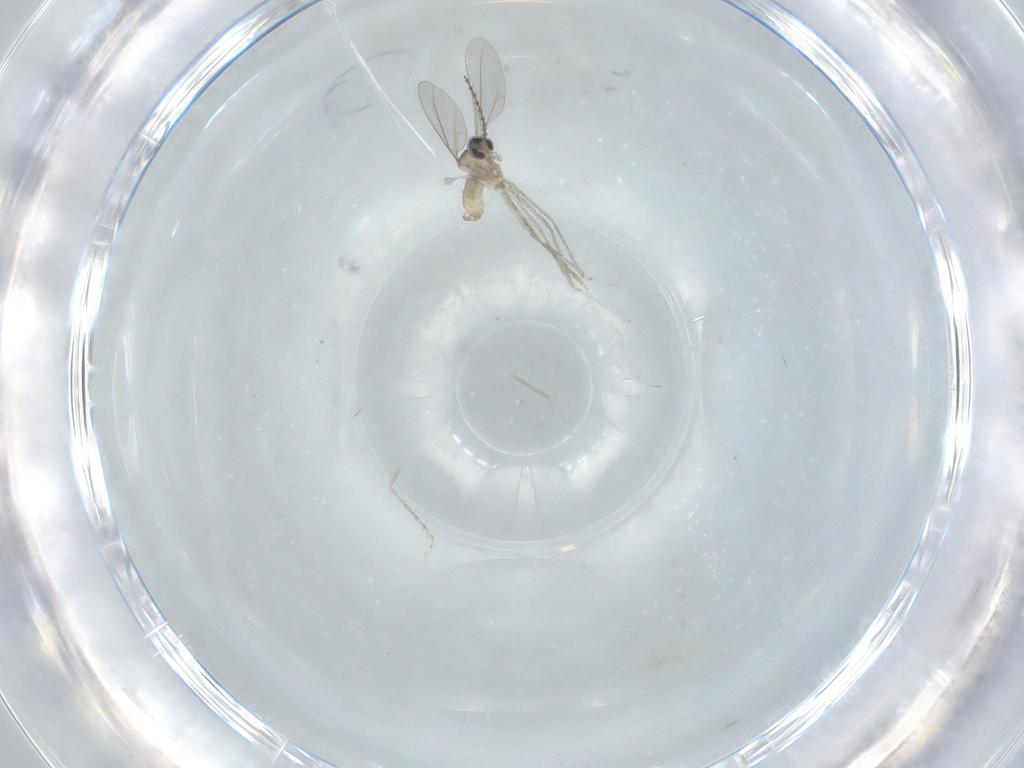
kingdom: Animalia
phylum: Arthropoda
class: Insecta
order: Diptera
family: Cecidomyiidae
